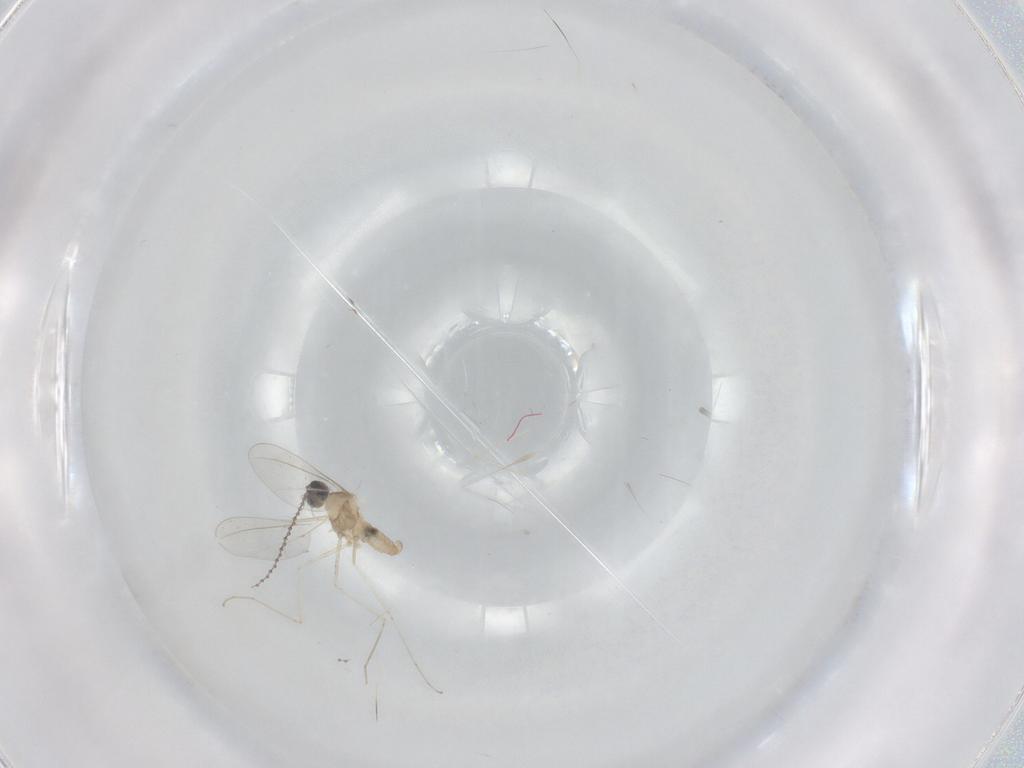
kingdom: Animalia
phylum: Arthropoda
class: Insecta
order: Diptera
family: Cecidomyiidae
